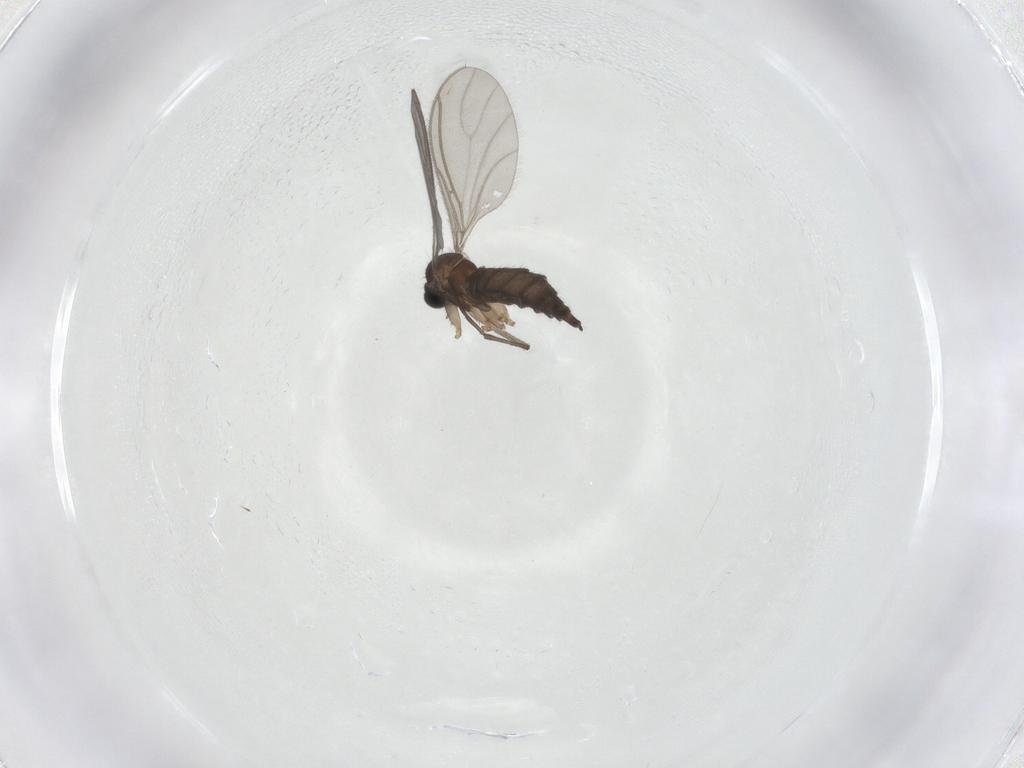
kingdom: Animalia
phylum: Arthropoda
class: Insecta
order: Diptera
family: Sciaridae
